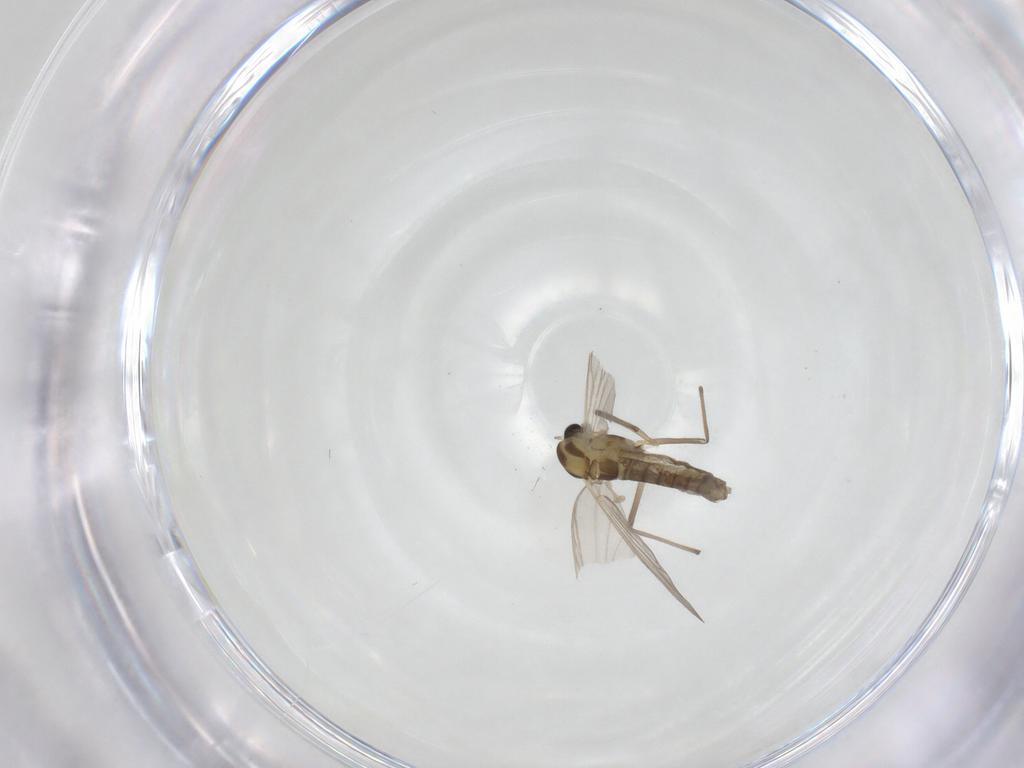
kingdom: Animalia
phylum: Arthropoda
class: Insecta
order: Diptera
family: Chironomidae
